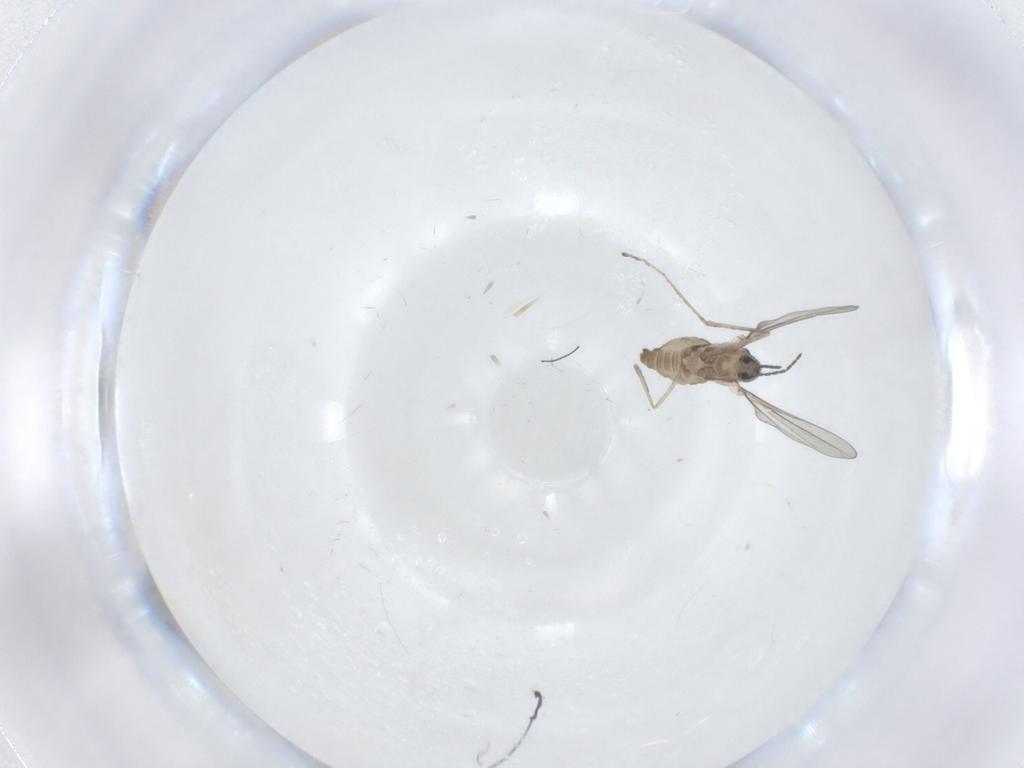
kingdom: Animalia
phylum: Arthropoda
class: Insecta
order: Diptera
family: Cecidomyiidae
